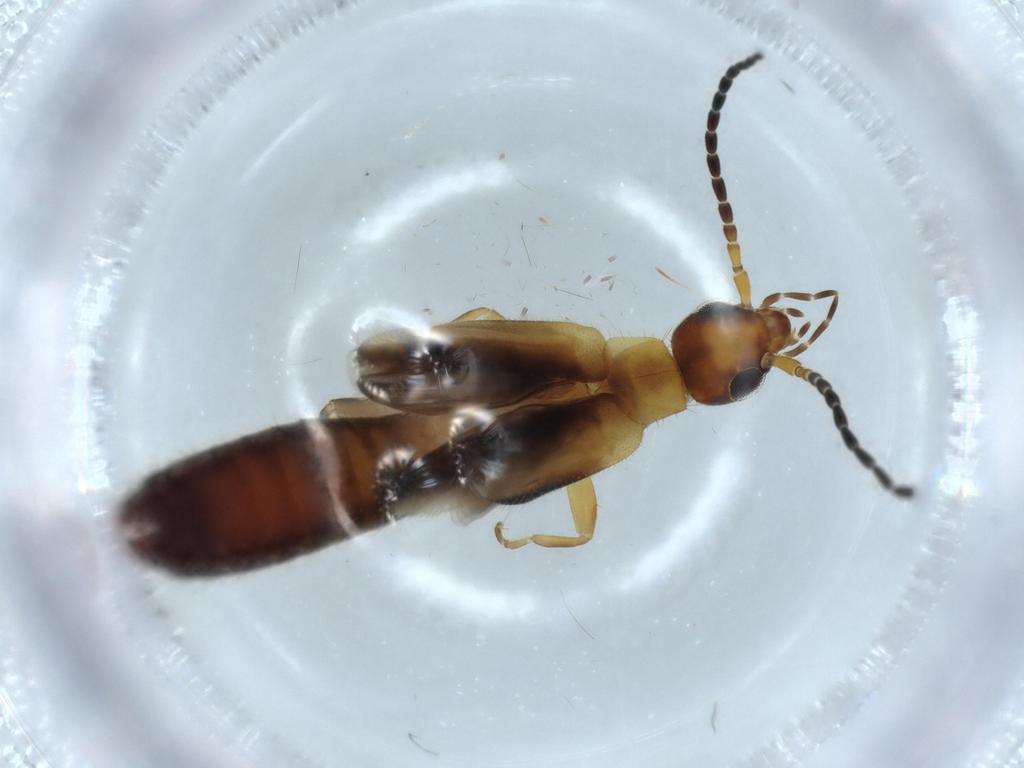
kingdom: Animalia
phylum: Arthropoda
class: Insecta
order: Dermaptera
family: Forficulidae
